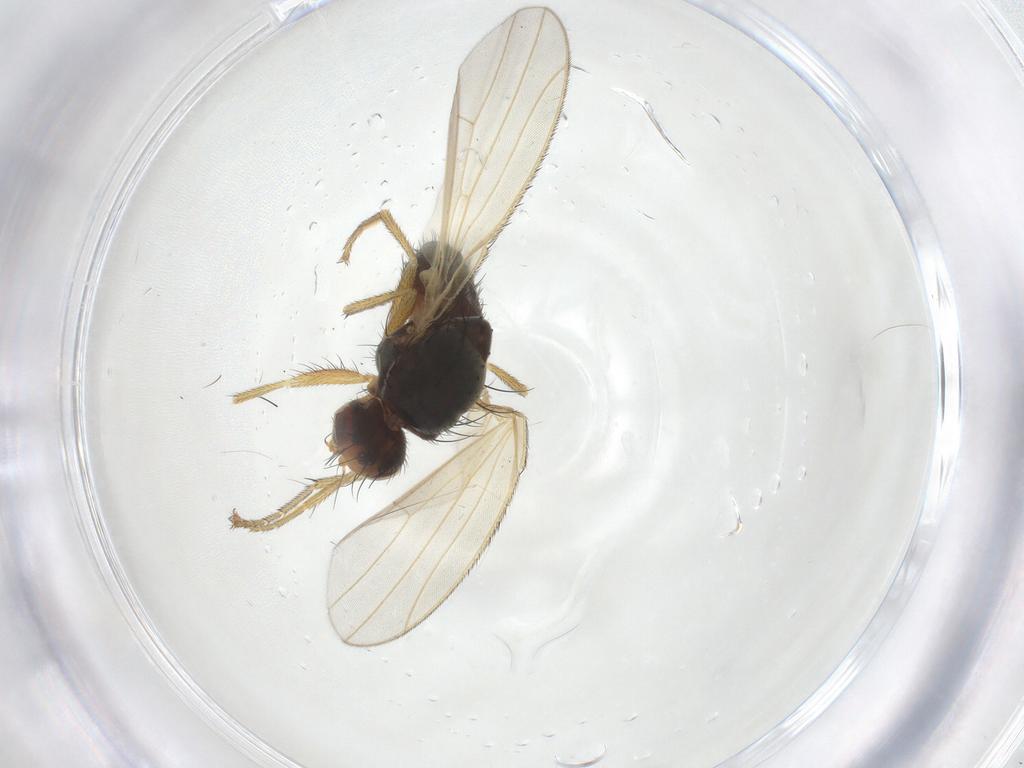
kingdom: Animalia
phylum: Arthropoda
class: Insecta
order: Diptera
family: Heleomyzidae
